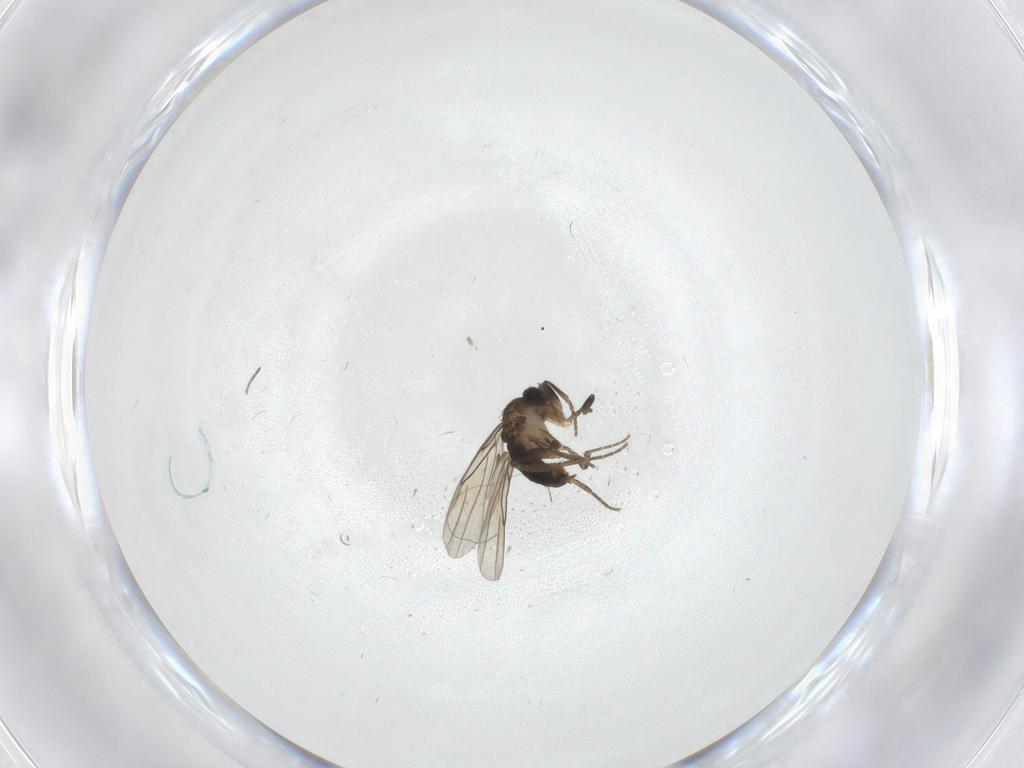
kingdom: Animalia
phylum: Arthropoda
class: Insecta
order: Diptera
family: Phoridae
